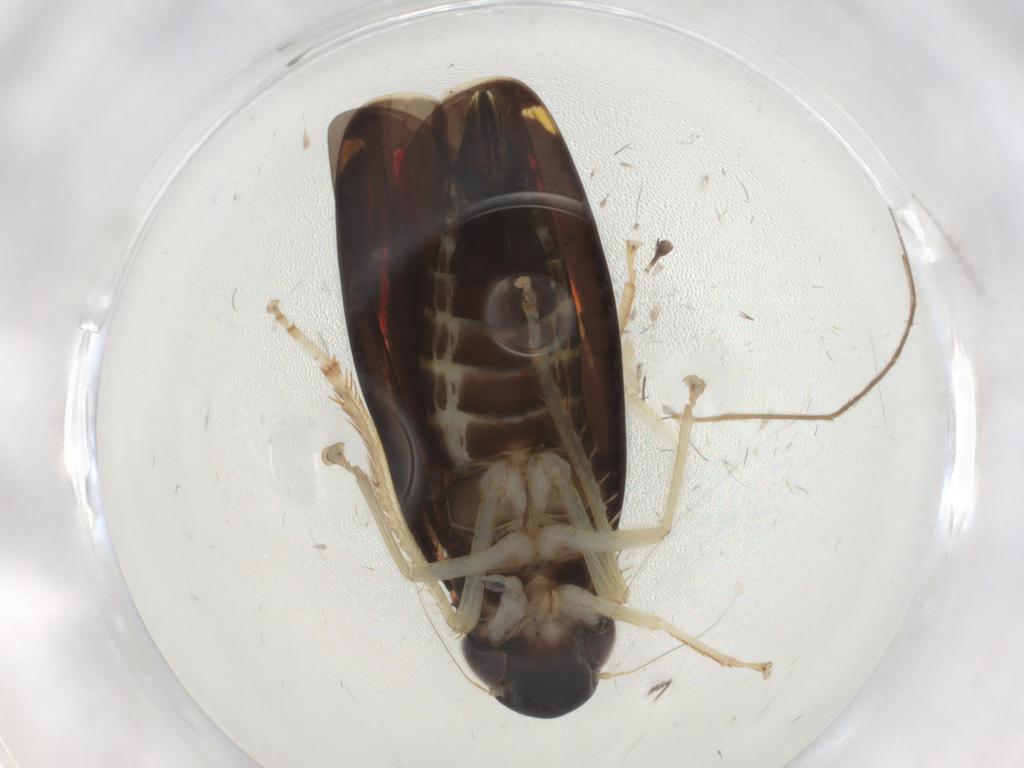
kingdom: Animalia
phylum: Arthropoda
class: Insecta
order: Hemiptera
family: Cicadellidae
